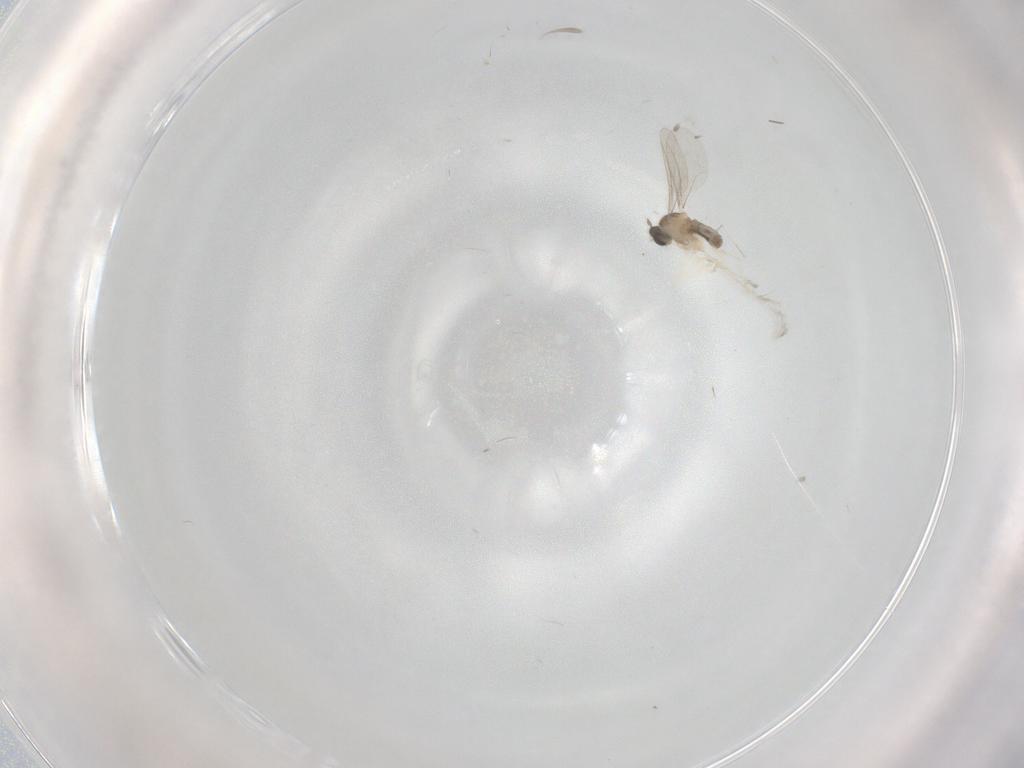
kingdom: Animalia
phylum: Arthropoda
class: Insecta
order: Diptera
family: Cecidomyiidae
